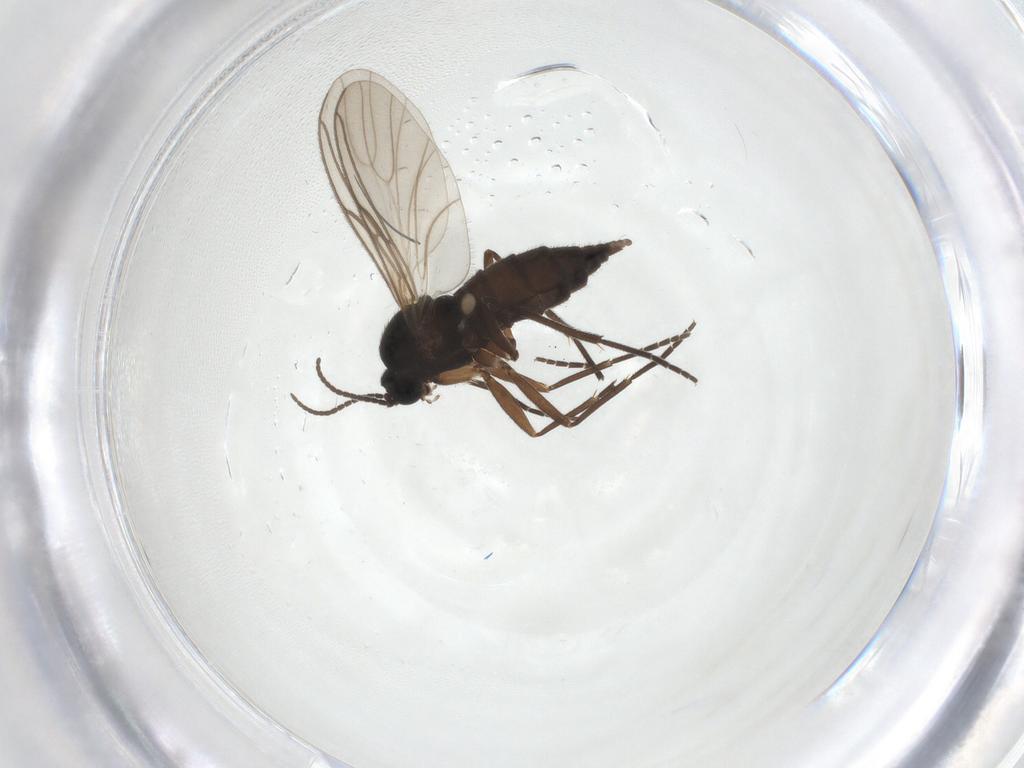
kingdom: Animalia
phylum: Arthropoda
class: Insecta
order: Diptera
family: Sciaridae
